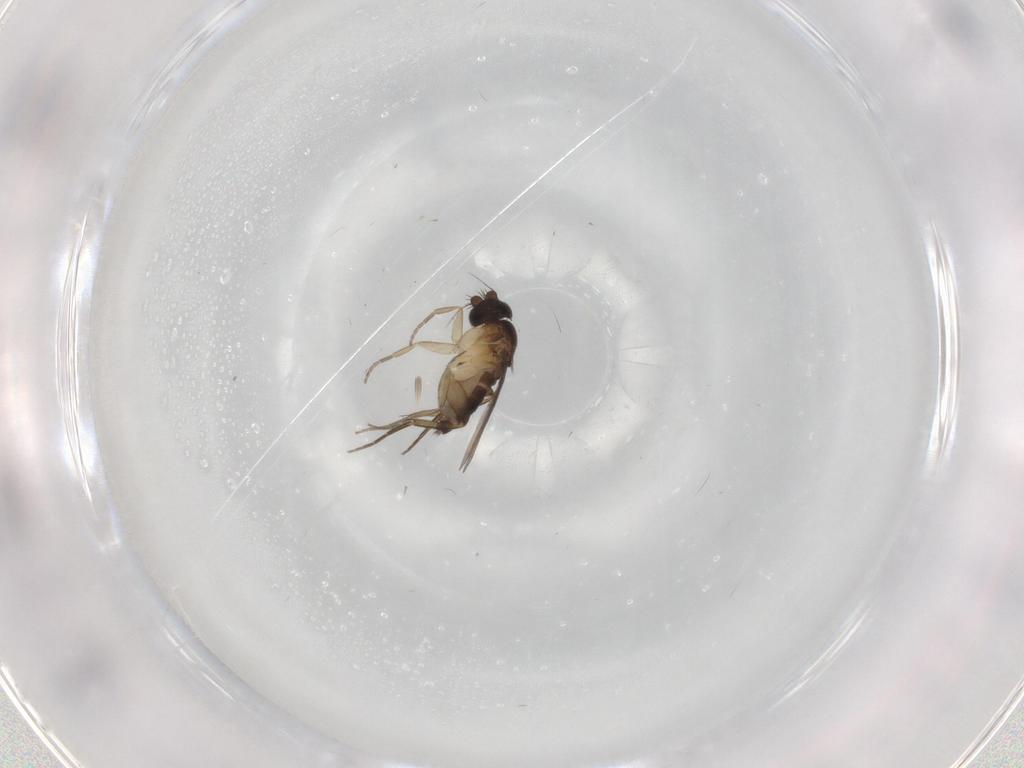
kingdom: Animalia
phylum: Arthropoda
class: Insecta
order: Diptera
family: Phoridae
